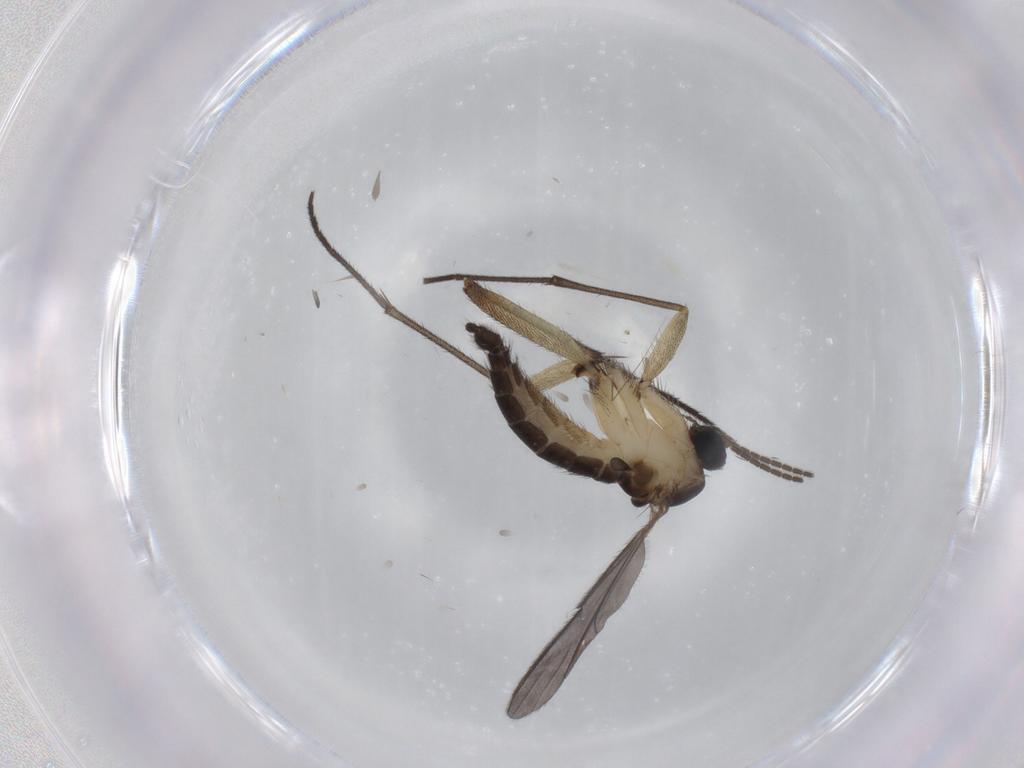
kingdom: Animalia
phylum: Arthropoda
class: Insecta
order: Diptera
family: Sciaridae
